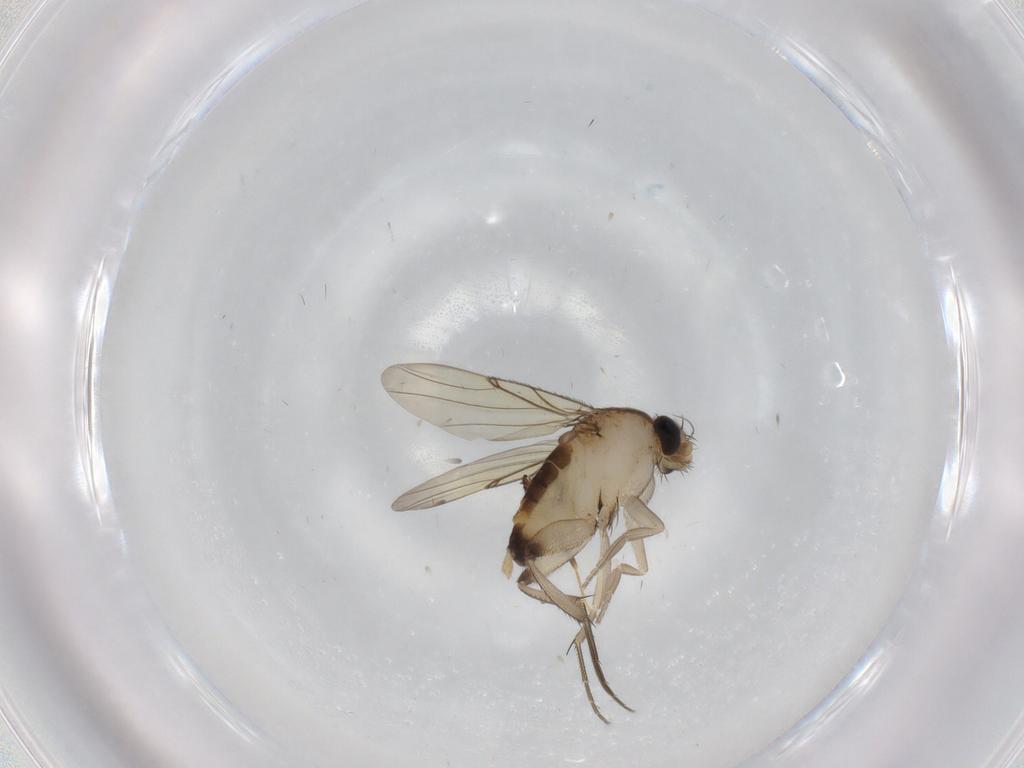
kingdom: Animalia
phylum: Arthropoda
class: Insecta
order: Diptera
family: Phoridae
